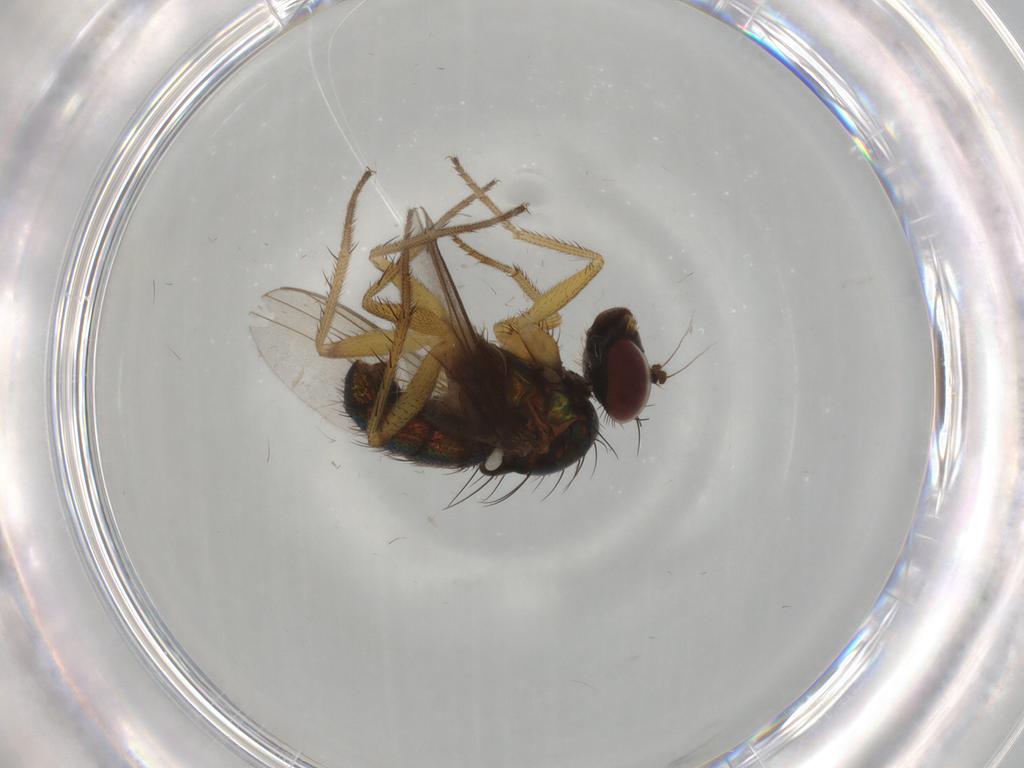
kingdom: Animalia
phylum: Arthropoda
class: Insecta
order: Diptera
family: Dolichopodidae
